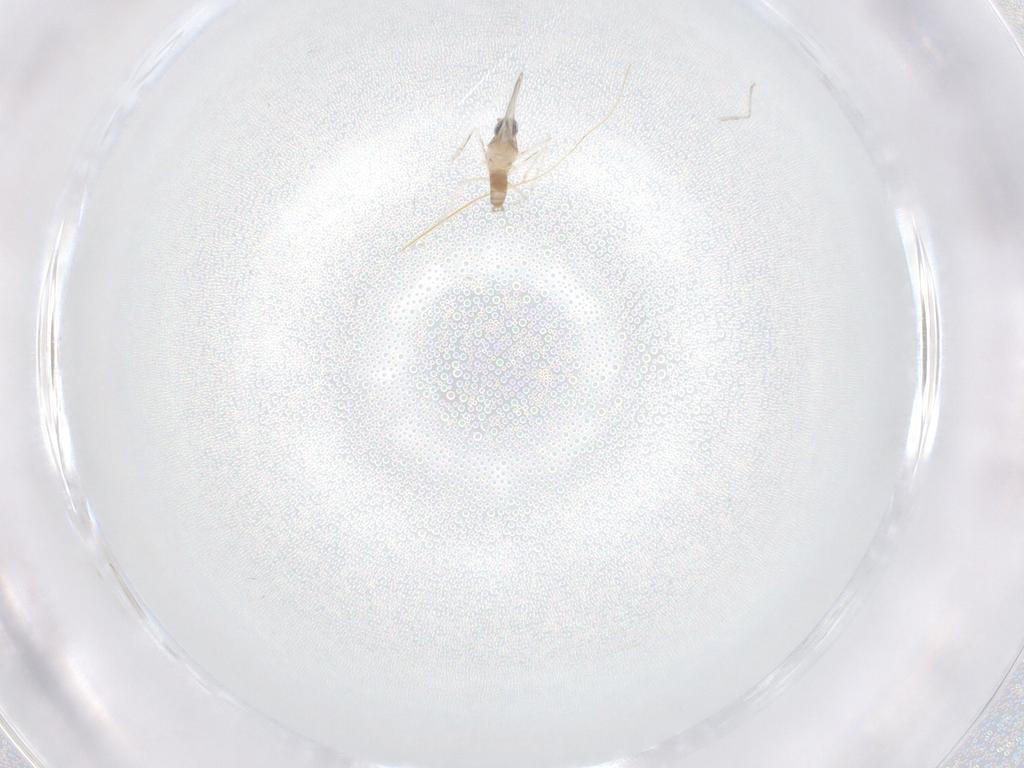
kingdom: Animalia
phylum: Arthropoda
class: Insecta
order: Diptera
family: Cecidomyiidae
